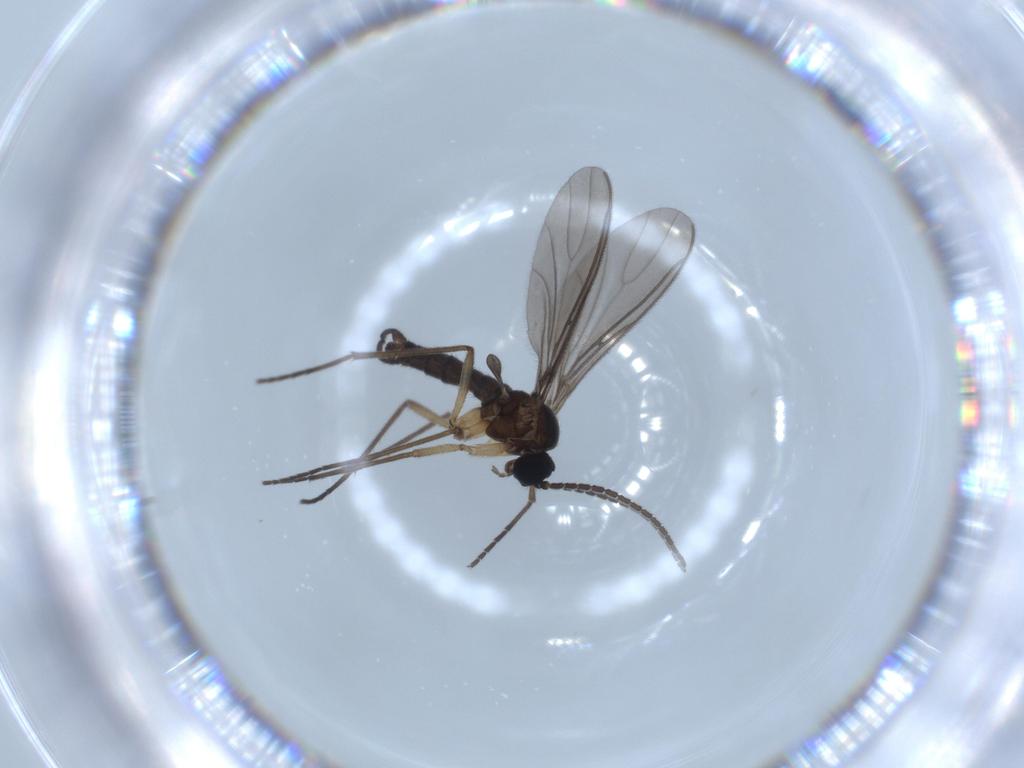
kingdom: Animalia
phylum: Arthropoda
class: Insecta
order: Diptera
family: Sciaridae
